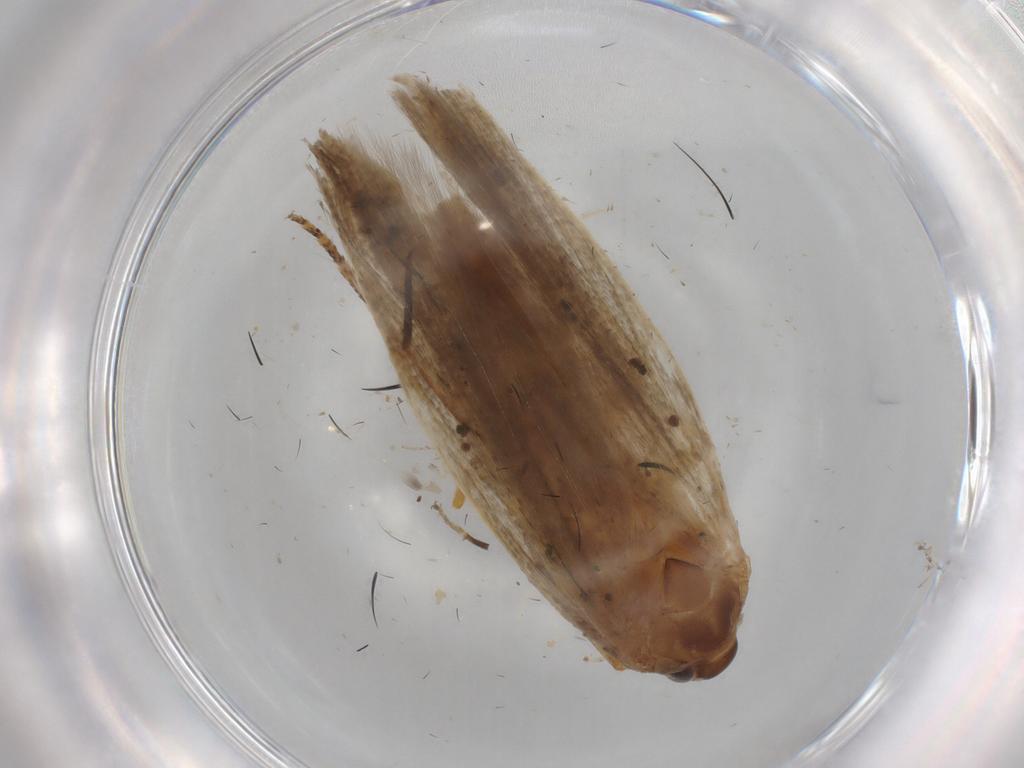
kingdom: Animalia
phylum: Arthropoda
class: Insecta
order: Lepidoptera
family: Gelechiidae
